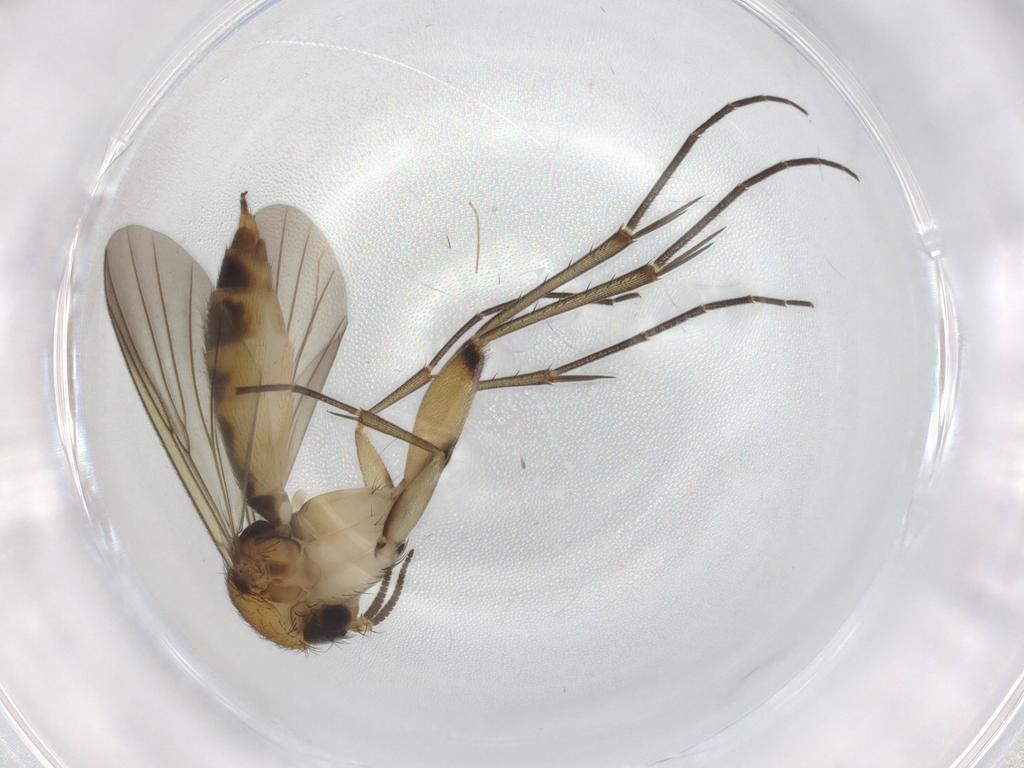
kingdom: Animalia
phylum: Arthropoda
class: Insecta
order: Diptera
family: Mycetophilidae
